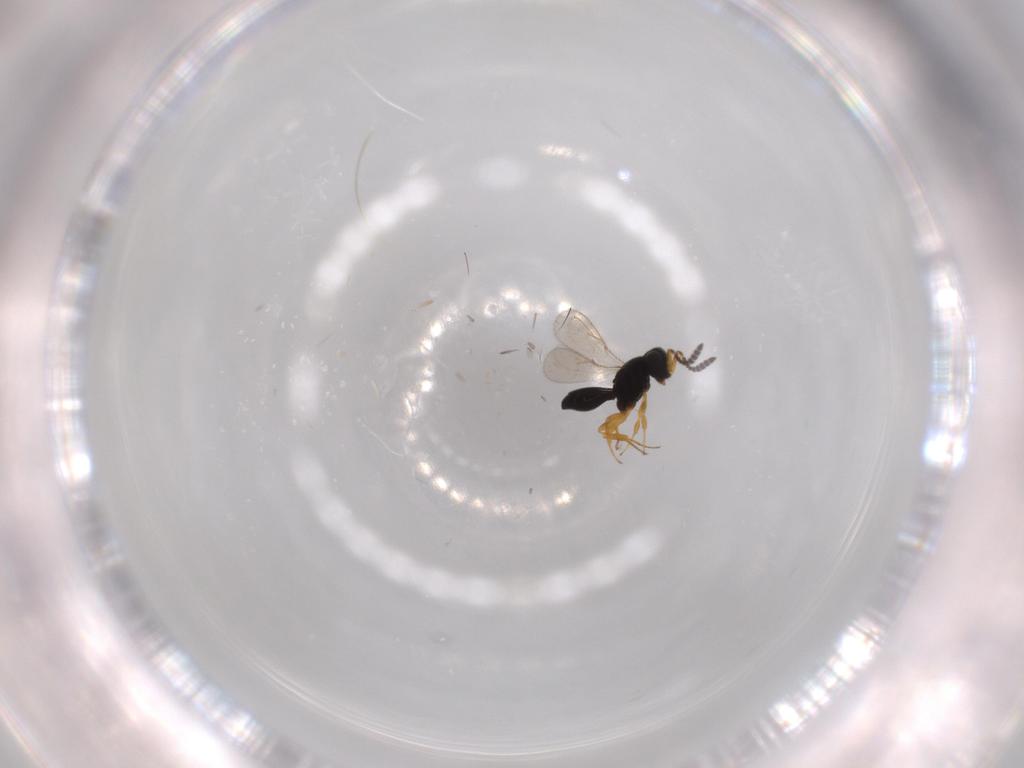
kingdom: Animalia
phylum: Arthropoda
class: Insecta
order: Hymenoptera
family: Scelionidae
